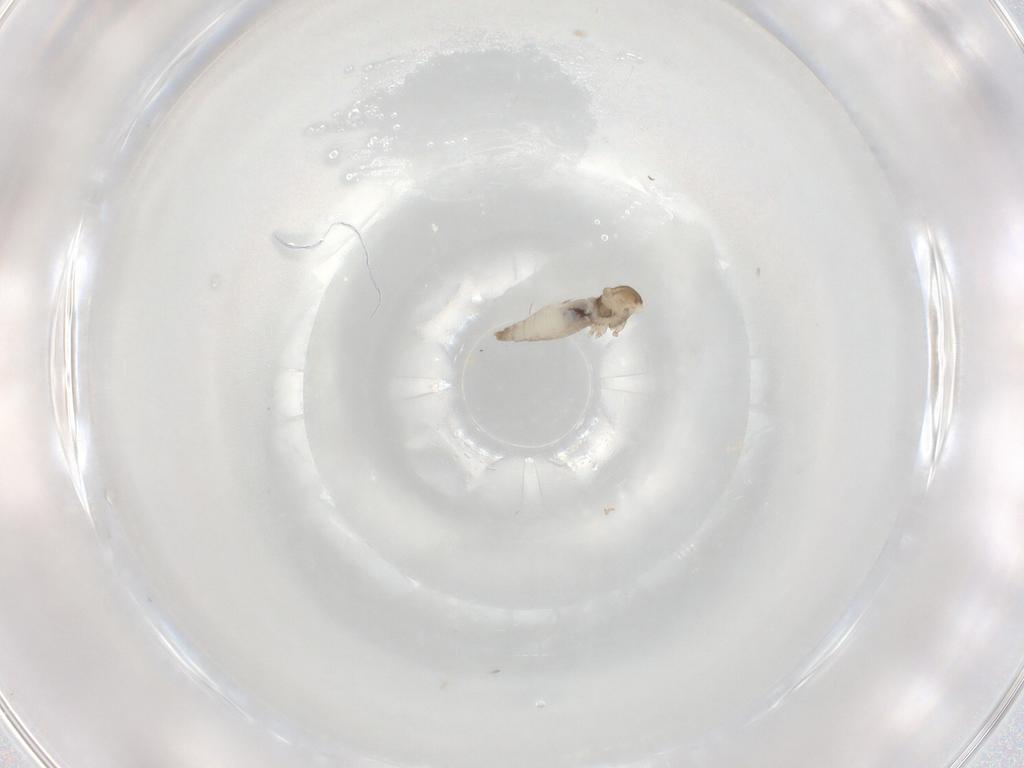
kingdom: Animalia
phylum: Arthropoda
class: Insecta
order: Diptera
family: Cecidomyiidae
